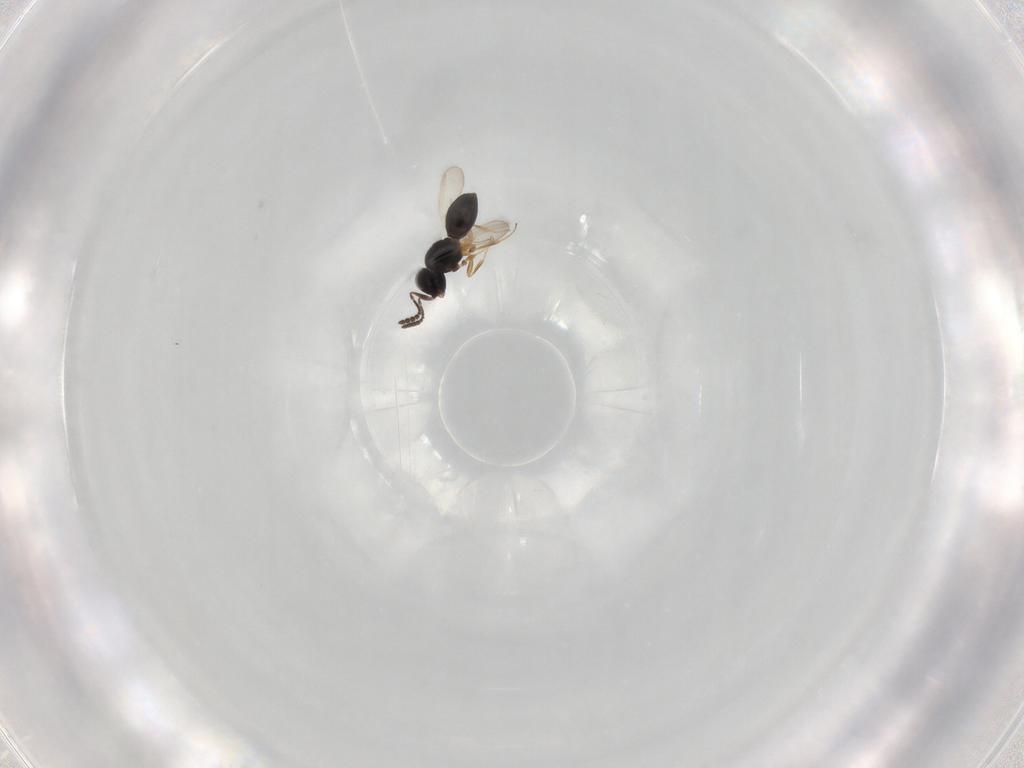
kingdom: Animalia
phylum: Arthropoda
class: Insecta
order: Hymenoptera
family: Scelionidae
